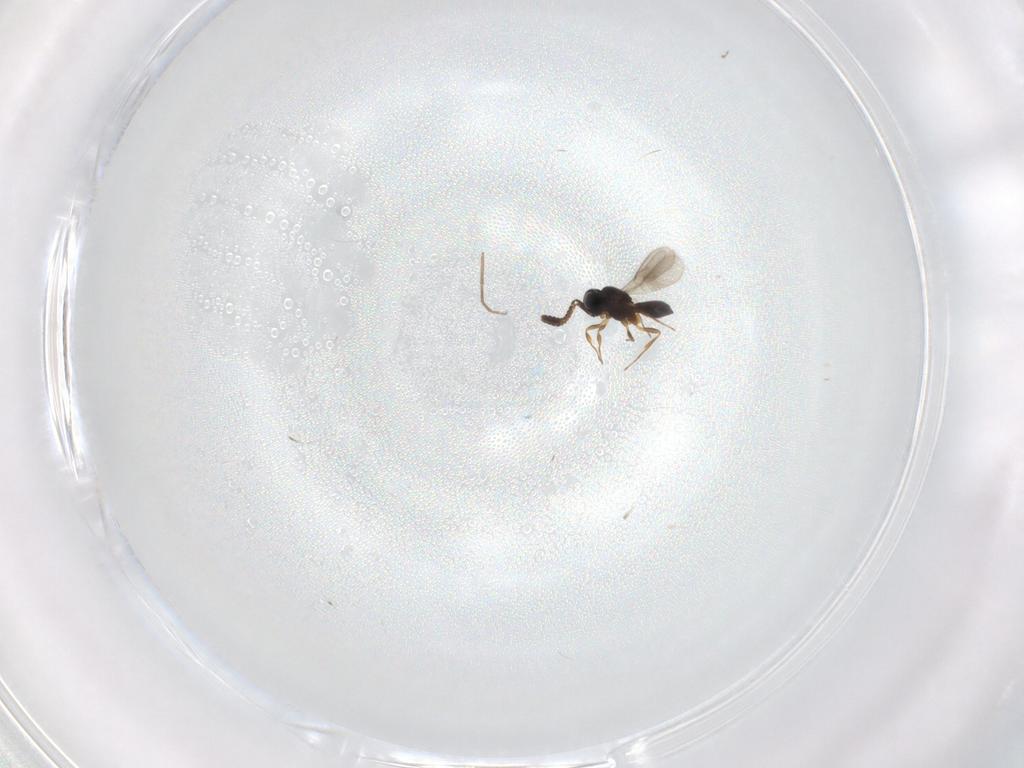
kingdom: Animalia
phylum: Arthropoda
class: Insecta
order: Hymenoptera
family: Scelionidae
